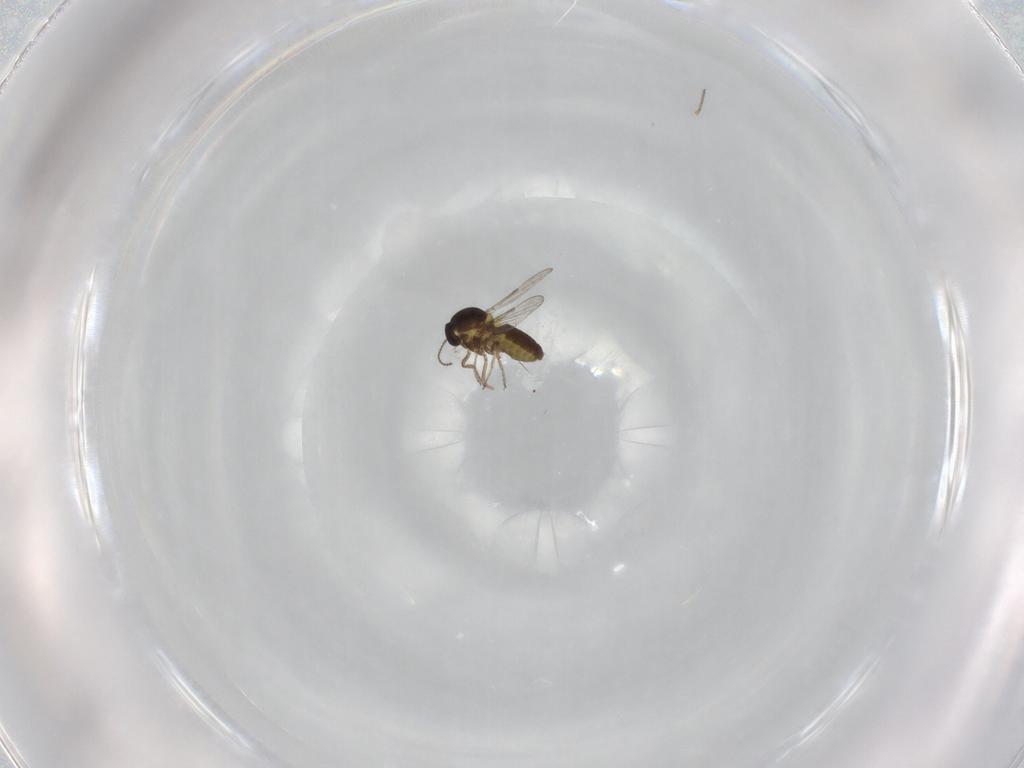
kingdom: Animalia
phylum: Arthropoda
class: Insecta
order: Diptera
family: Ceratopogonidae
